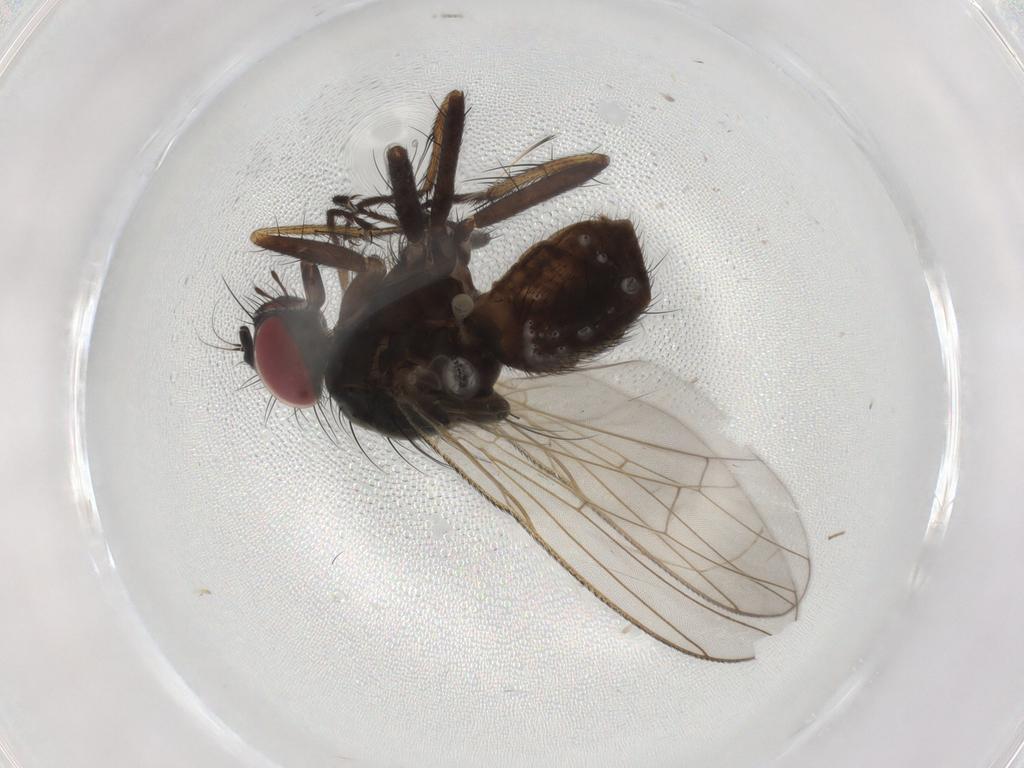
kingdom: Animalia
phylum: Arthropoda
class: Insecta
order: Diptera
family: Muscidae
